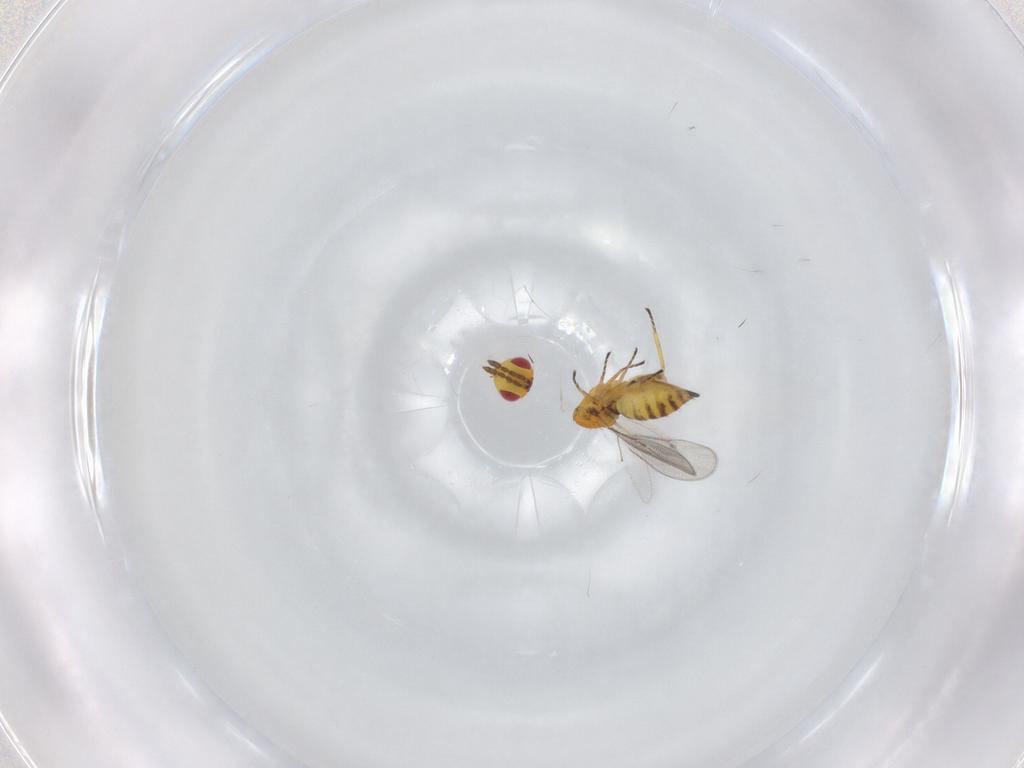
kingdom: Animalia
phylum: Arthropoda
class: Insecta
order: Hymenoptera
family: Eulophidae
